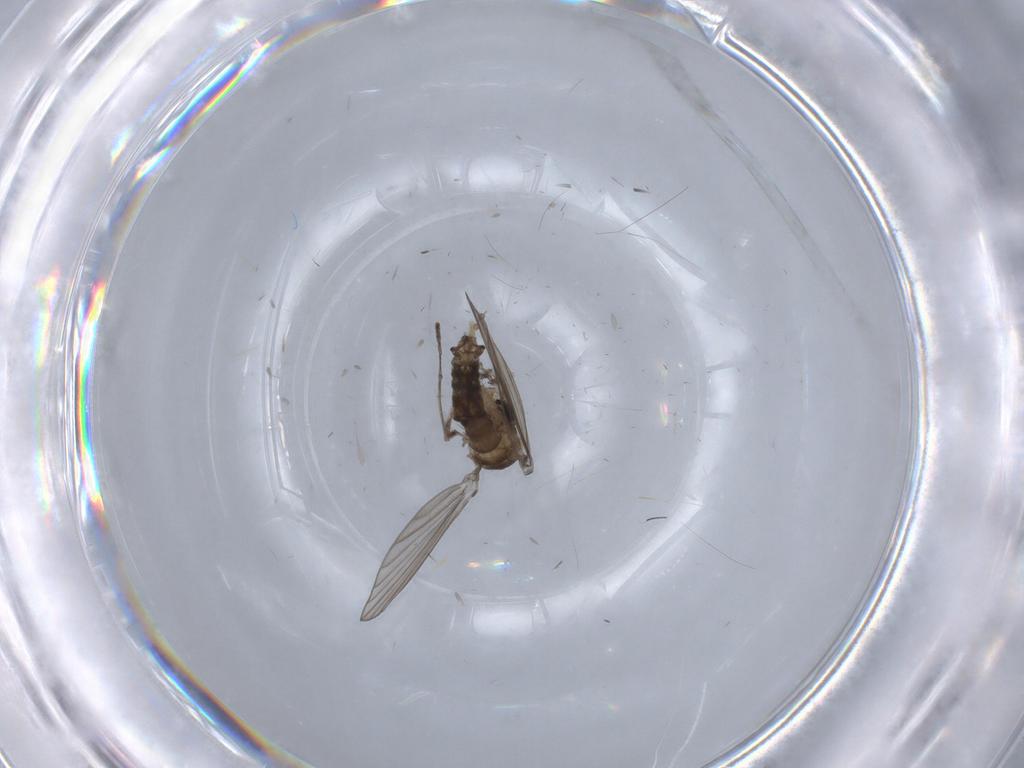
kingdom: Animalia
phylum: Arthropoda
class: Insecta
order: Diptera
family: Psychodidae
